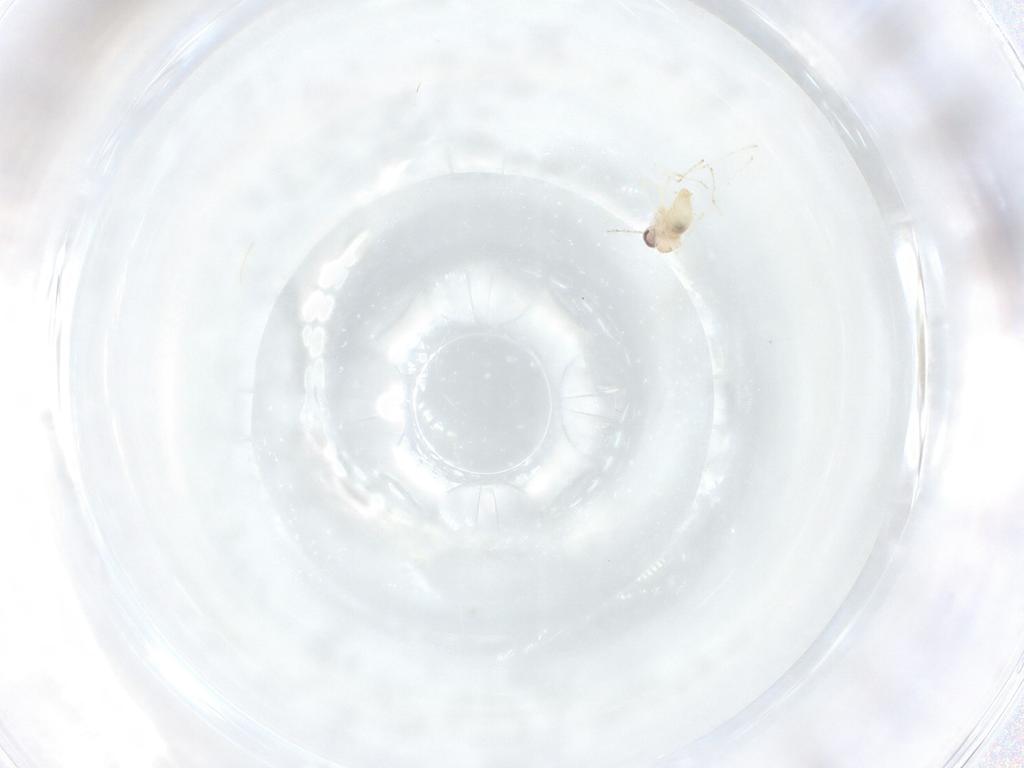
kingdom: Animalia
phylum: Arthropoda
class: Insecta
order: Diptera
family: Cecidomyiidae
